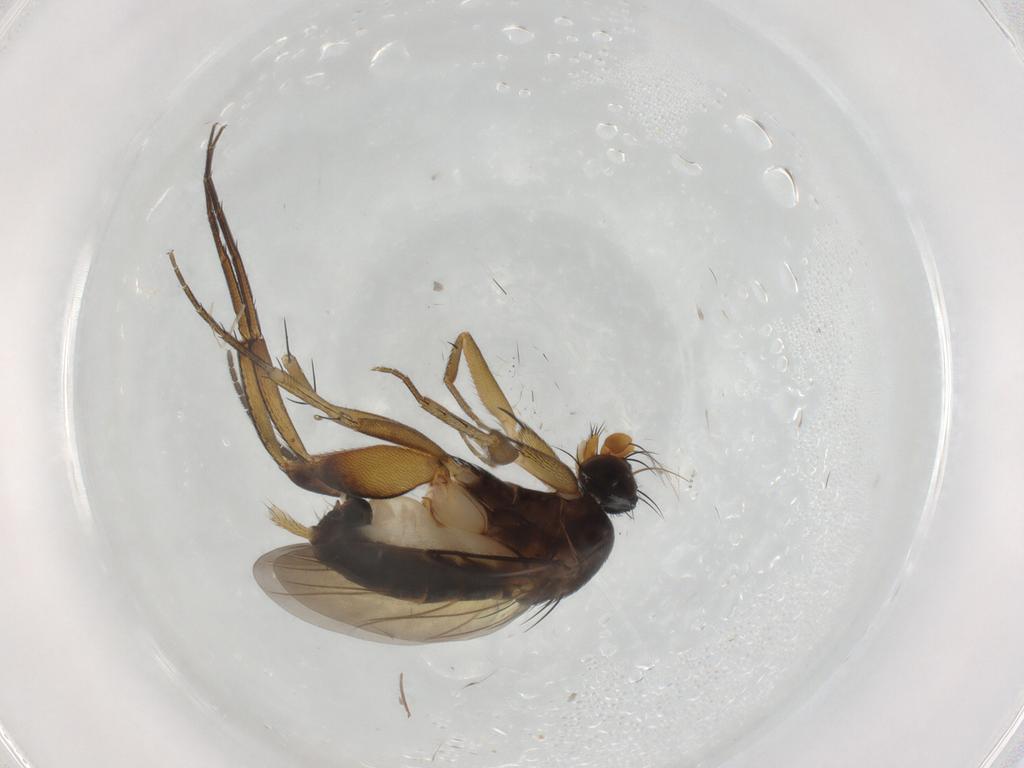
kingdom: Animalia
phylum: Arthropoda
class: Insecta
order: Diptera
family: Phoridae
